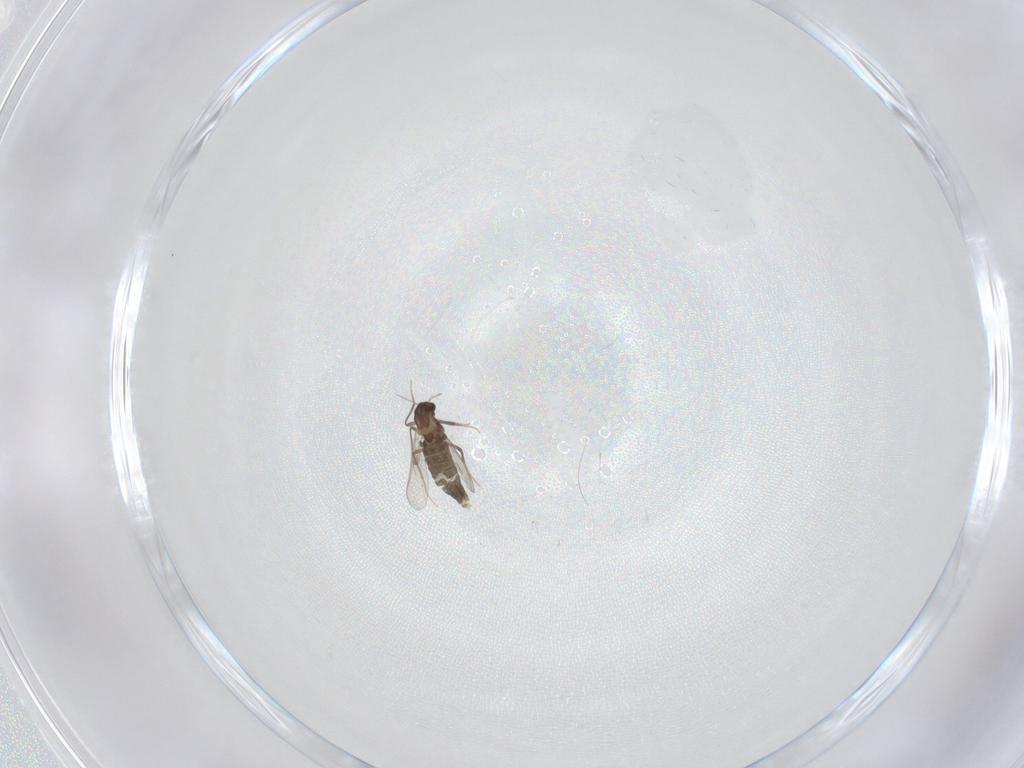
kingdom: Animalia
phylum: Arthropoda
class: Insecta
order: Diptera
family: Cecidomyiidae
